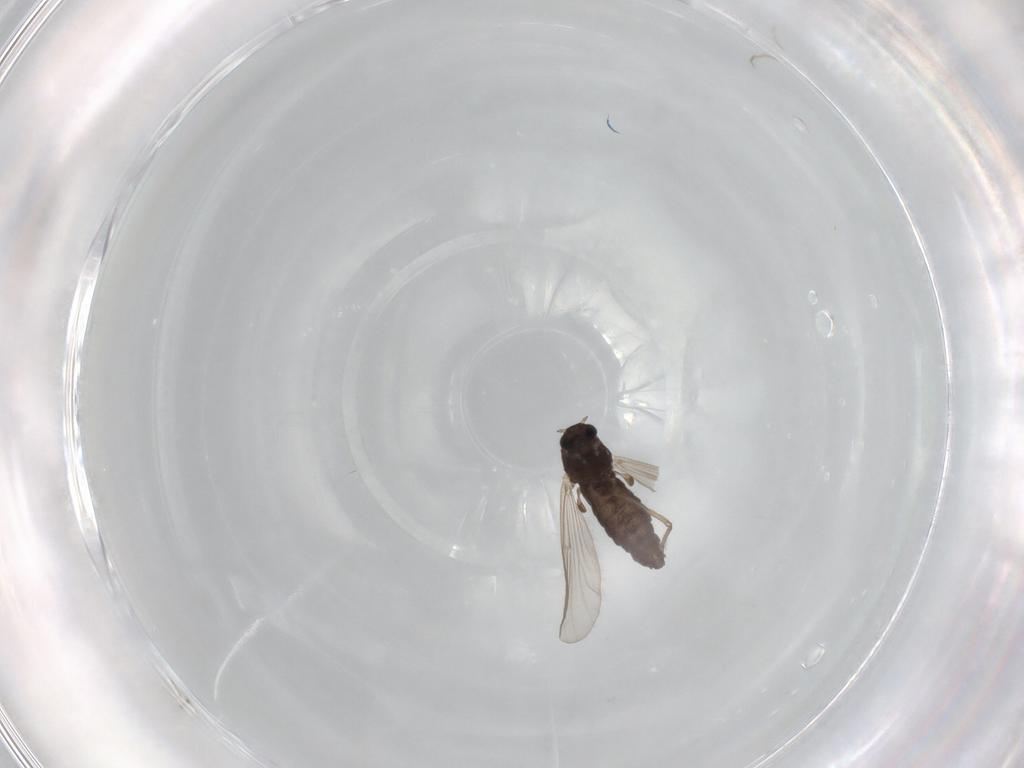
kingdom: Animalia
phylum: Arthropoda
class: Insecta
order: Diptera
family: Chironomidae
